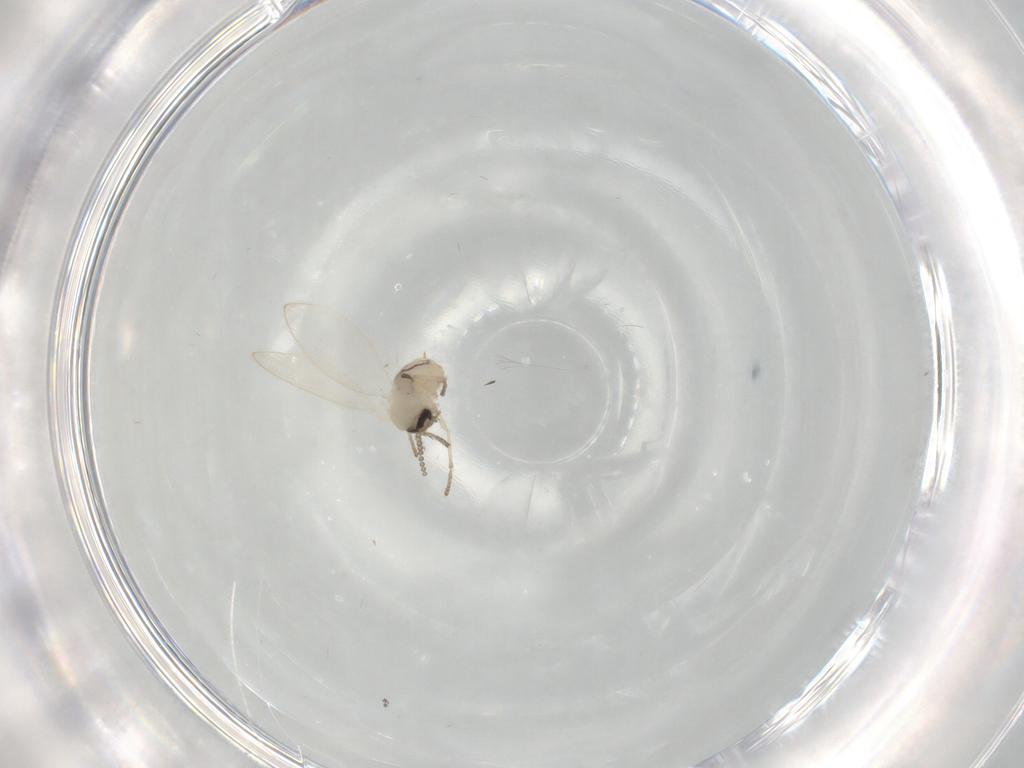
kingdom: Animalia
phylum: Arthropoda
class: Insecta
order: Diptera
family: Psychodidae
